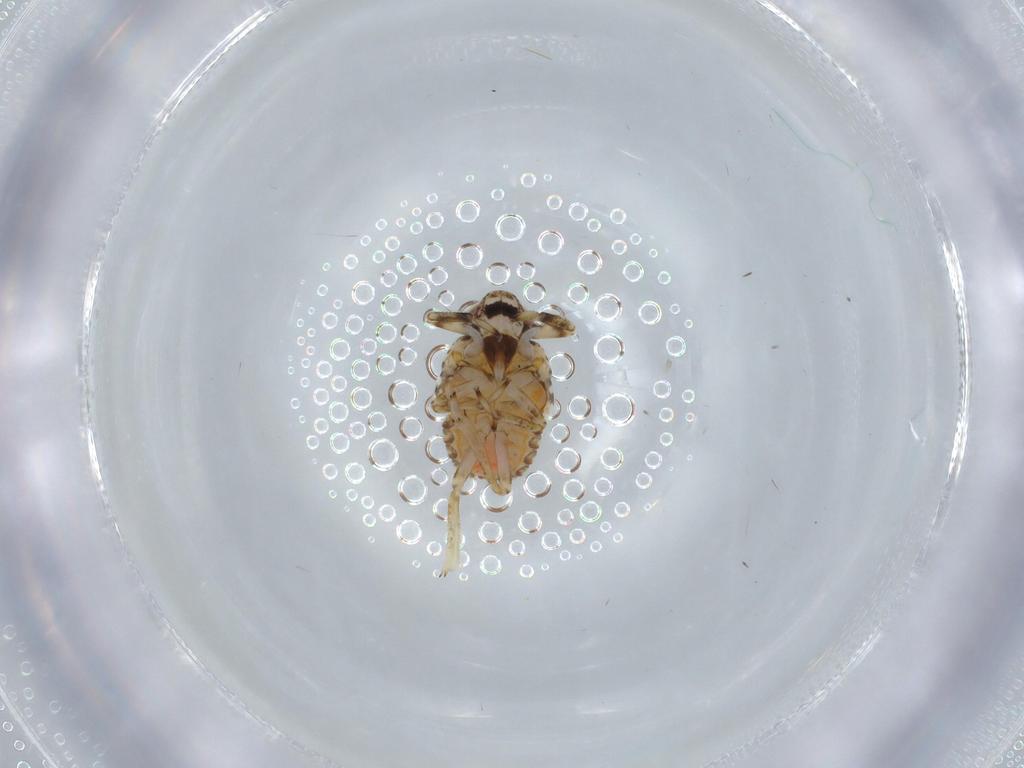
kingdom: Animalia
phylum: Arthropoda
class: Insecta
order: Hemiptera
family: Issidae
